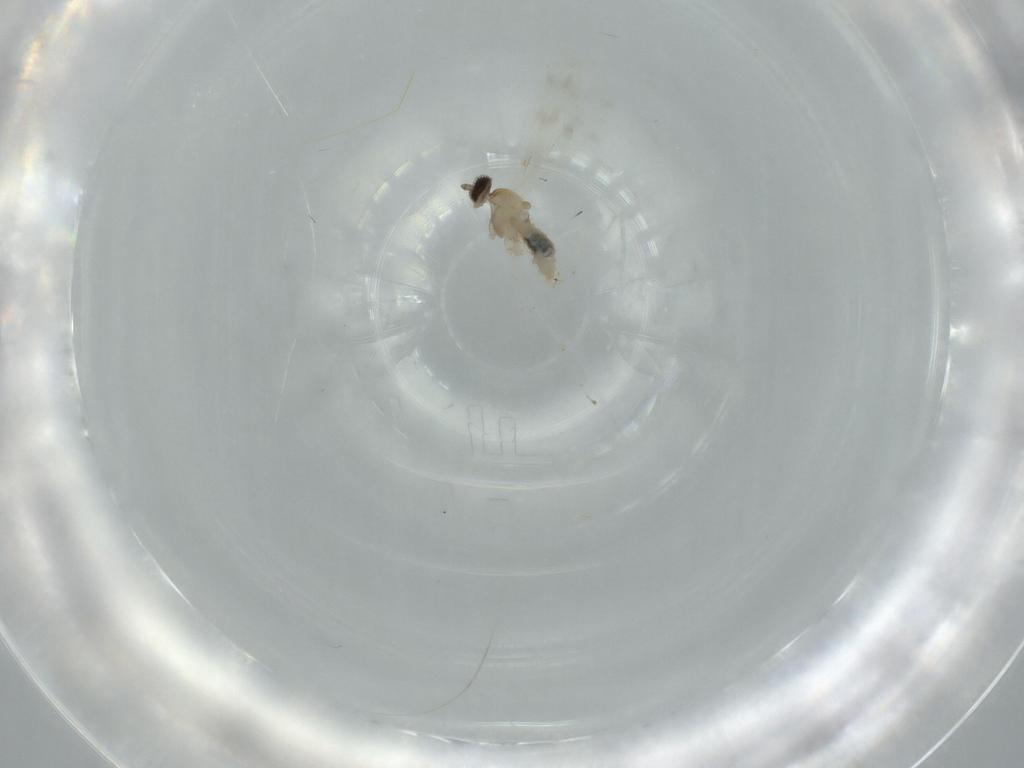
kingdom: Animalia
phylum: Arthropoda
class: Insecta
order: Diptera
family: Cecidomyiidae
